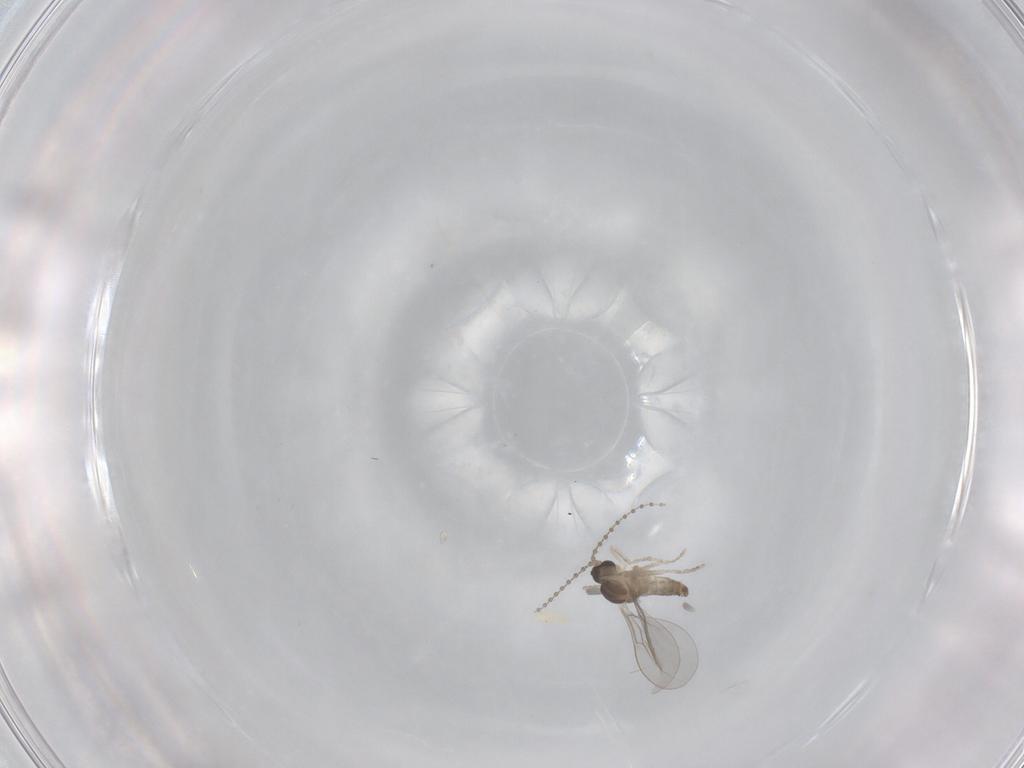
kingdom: Animalia
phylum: Arthropoda
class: Insecta
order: Diptera
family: Cecidomyiidae
